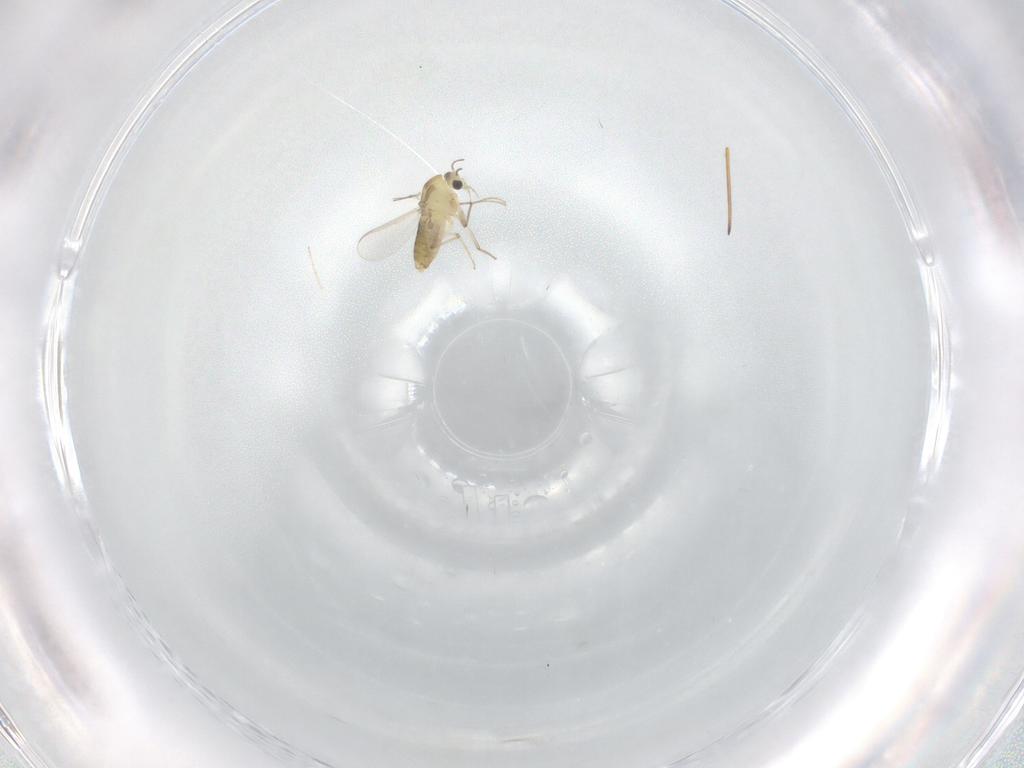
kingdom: Animalia
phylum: Arthropoda
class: Insecta
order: Diptera
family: Chironomidae
